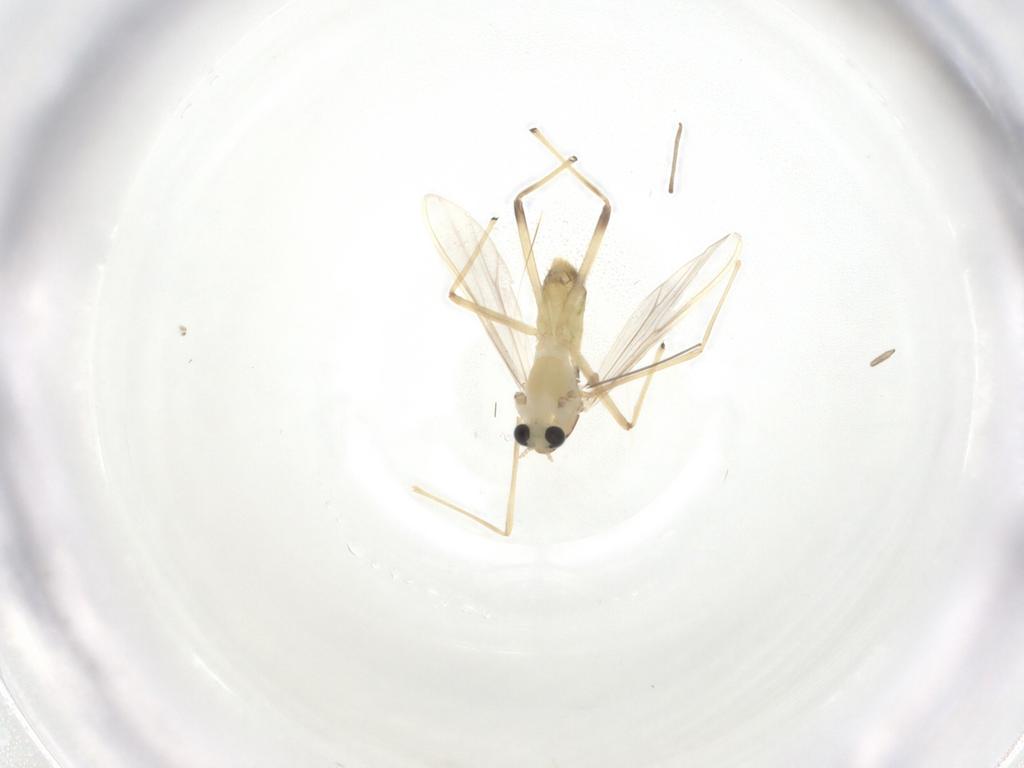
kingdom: Animalia
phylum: Arthropoda
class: Insecta
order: Diptera
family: Chironomidae
